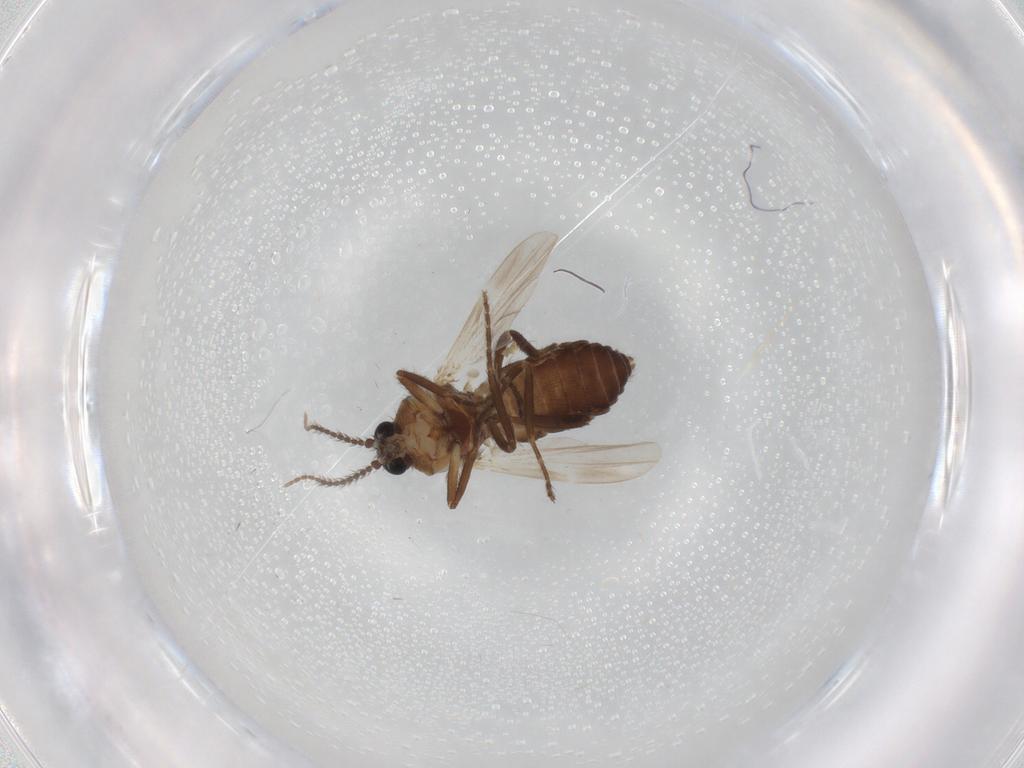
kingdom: Animalia
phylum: Arthropoda
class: Insecta
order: Diptera
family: Ceratopogonidae
